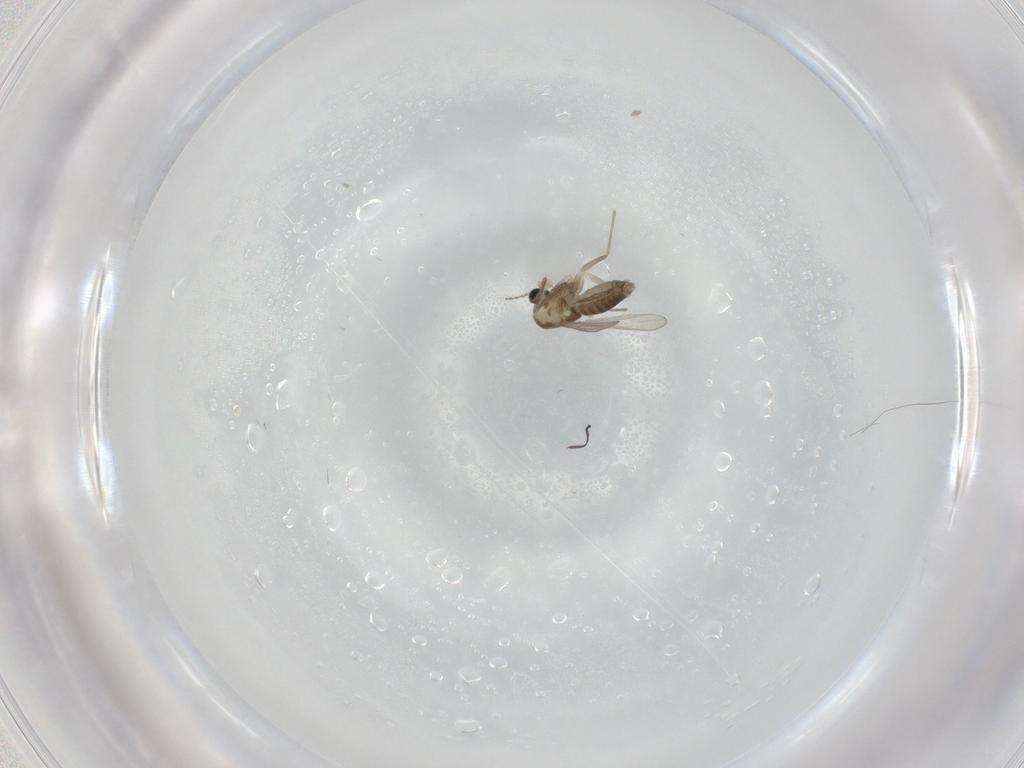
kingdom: Animalia
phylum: Arthropoda
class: Insecta
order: Diptera
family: Chironomidae
